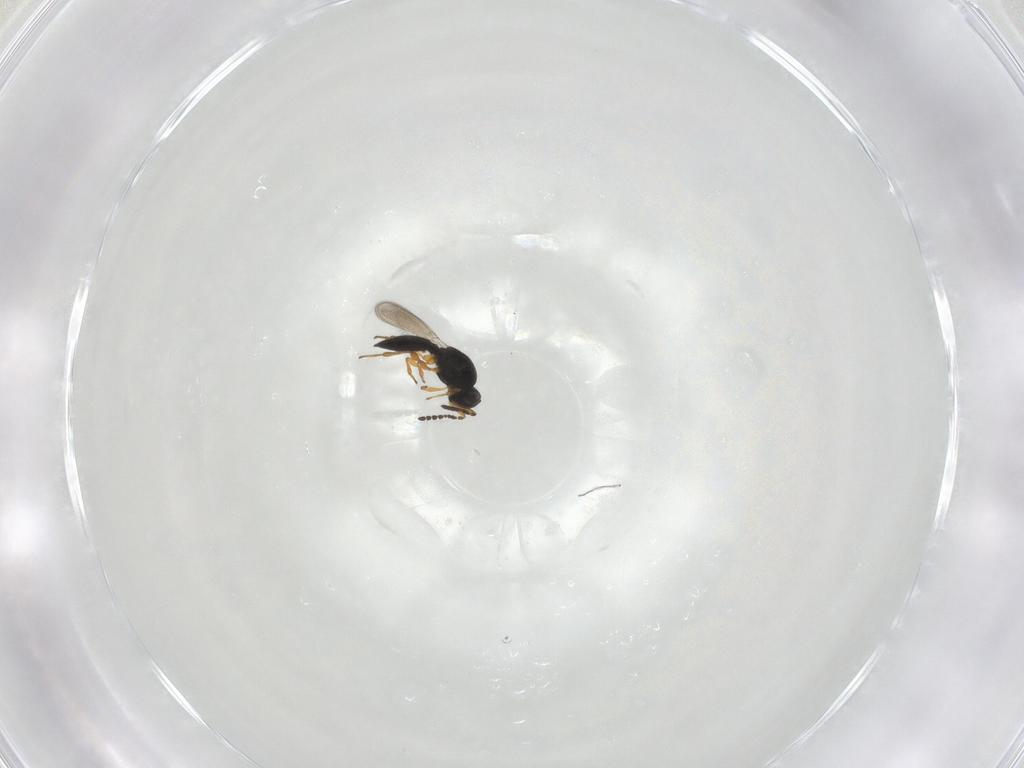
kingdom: Animalia
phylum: Arthropoda
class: Insecta
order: Hymenoptera
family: Platygastridae
